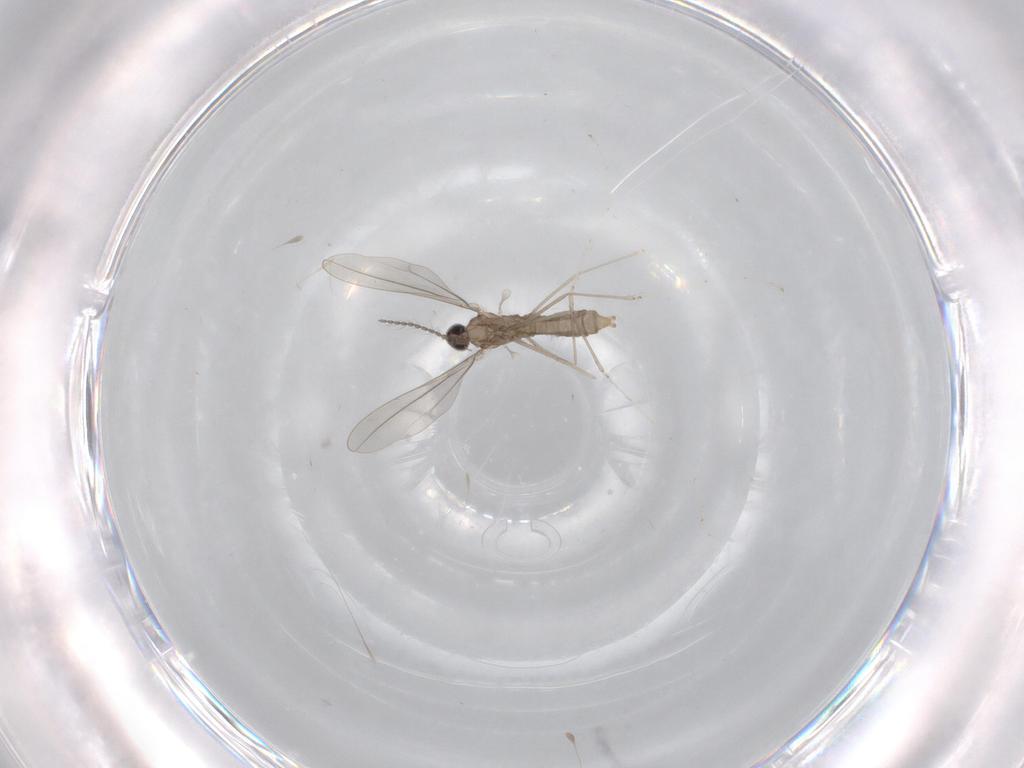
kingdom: Animalia
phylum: Arthropoda
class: Insecta
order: Diptera
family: Cecidomyiidae
